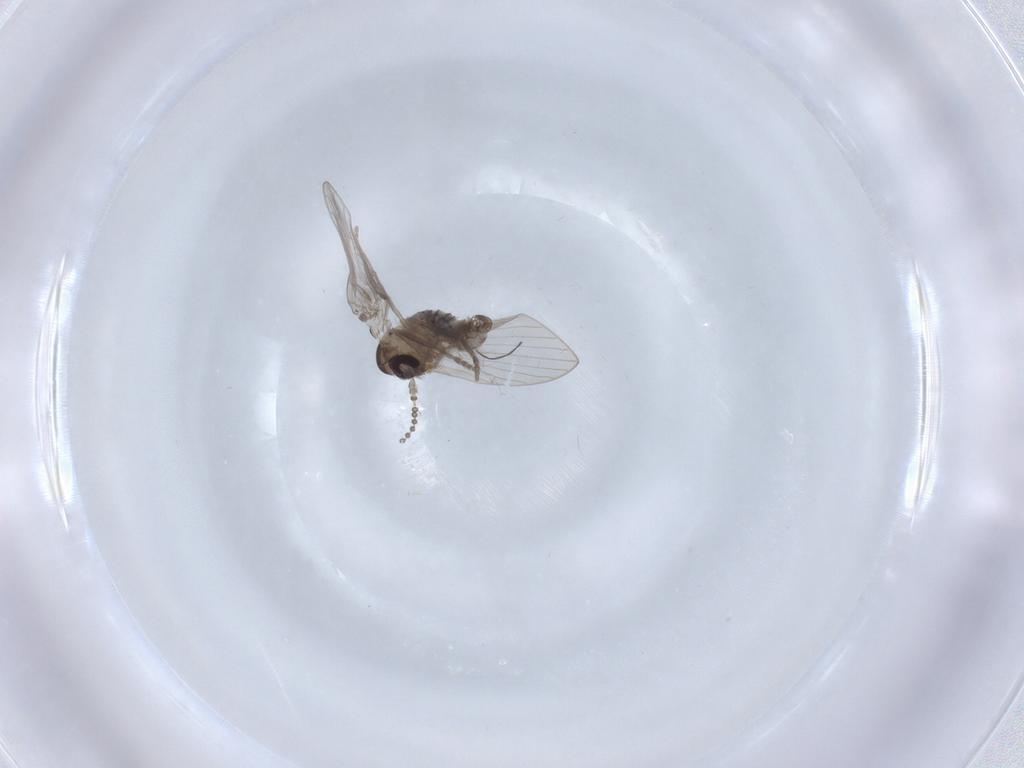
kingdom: Animalia
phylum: Arthropoda
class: Insecta
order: Diptera
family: Psychodidae
